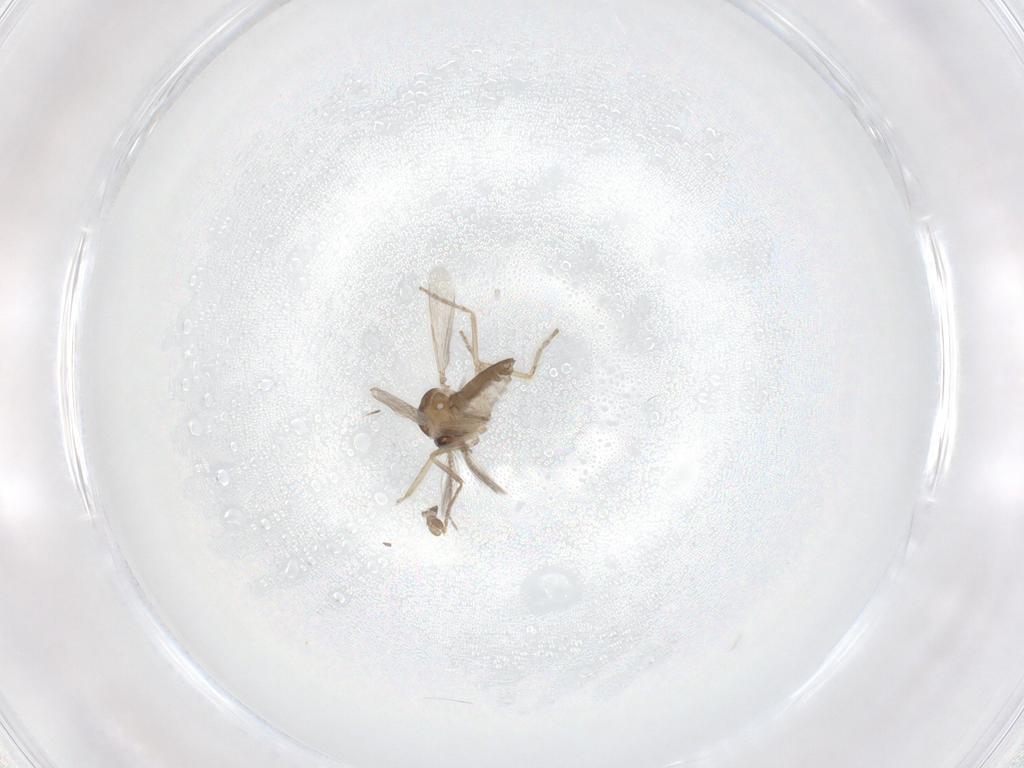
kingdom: Animalia
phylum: Arthropoda
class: Insecta
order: Diptera
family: Ceratopogonidae
